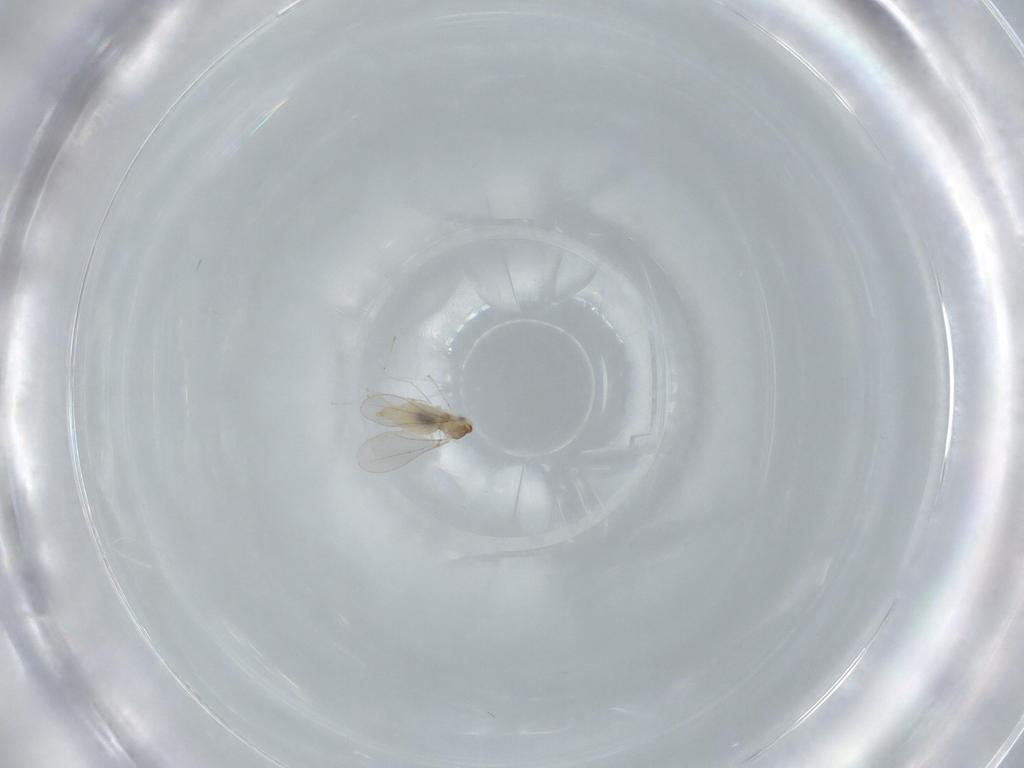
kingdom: Animalia
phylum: Arthropoda
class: Insecta
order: Diptera
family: Cecidomyiidae
